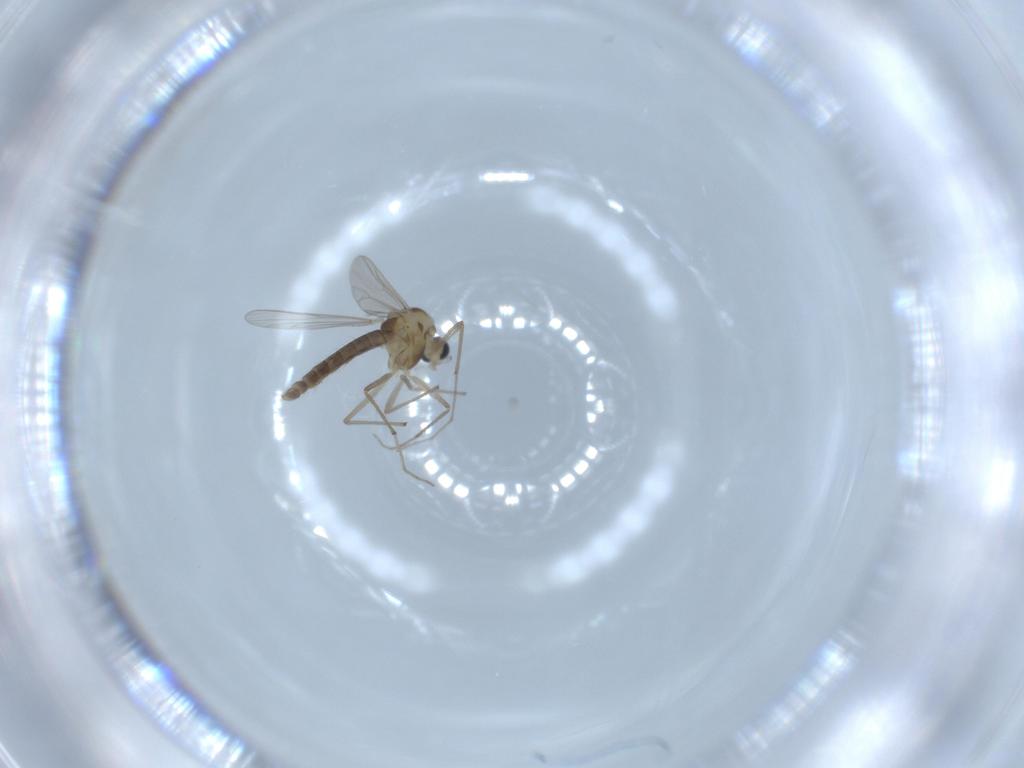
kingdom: Animalia
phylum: Arthropoda
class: Insecta
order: Diptera
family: Chironomidae
